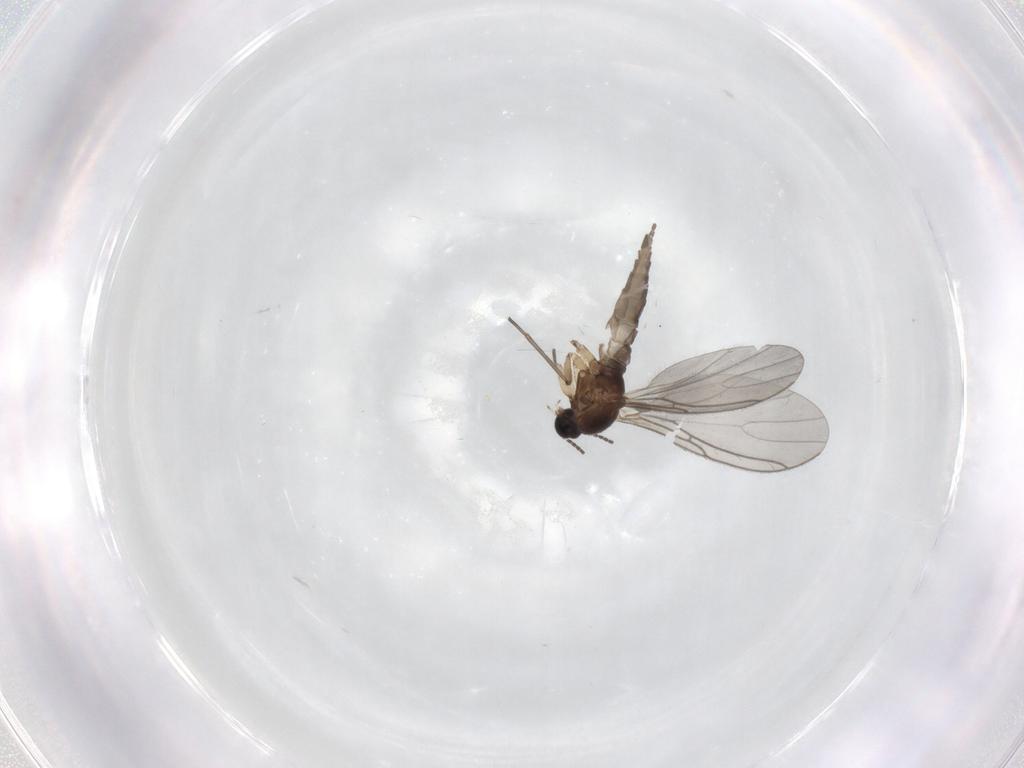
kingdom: Animalia
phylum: Arthropoda
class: Insecta
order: Diptera
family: Sciaridae
